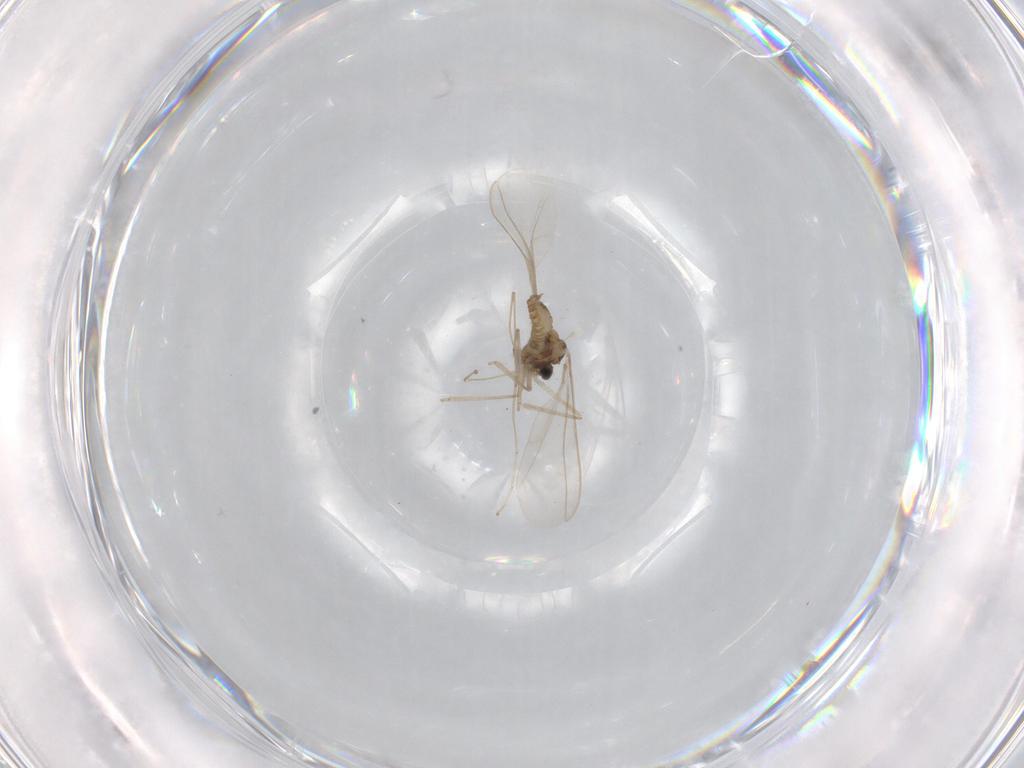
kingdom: Animalia
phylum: Arthropoda
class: Insecta
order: Diptera
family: Cecidomyiidae
